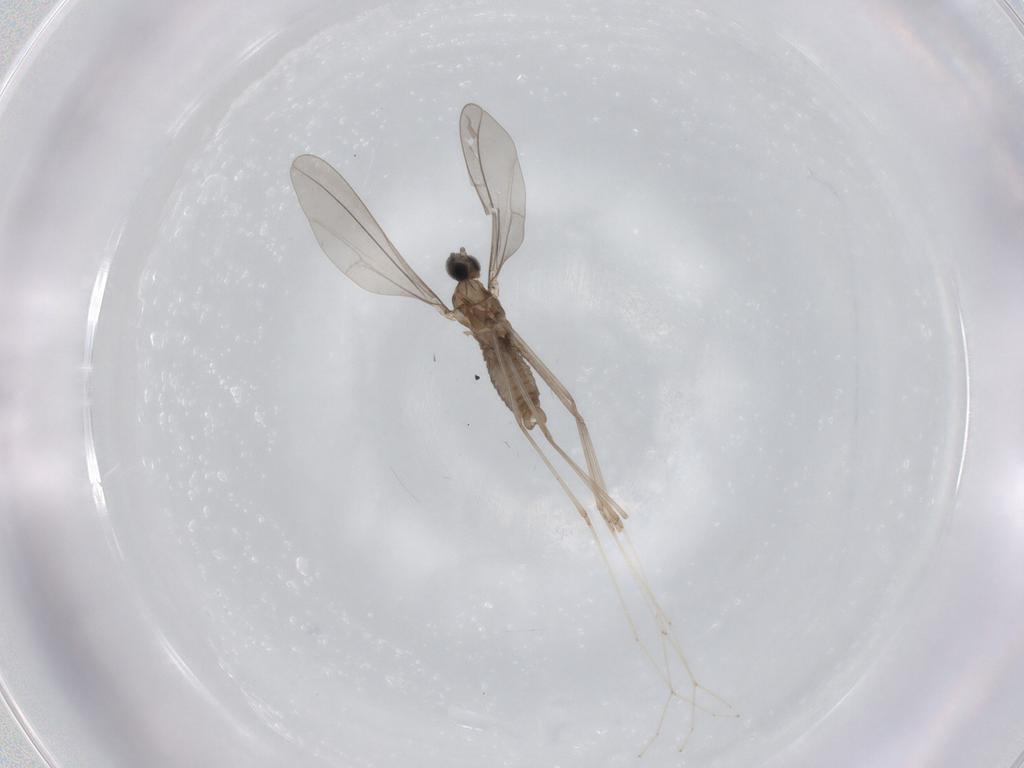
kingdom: Animalia
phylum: Arthropoda
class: Insecta
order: Diptera
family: Cecidomyiidae
